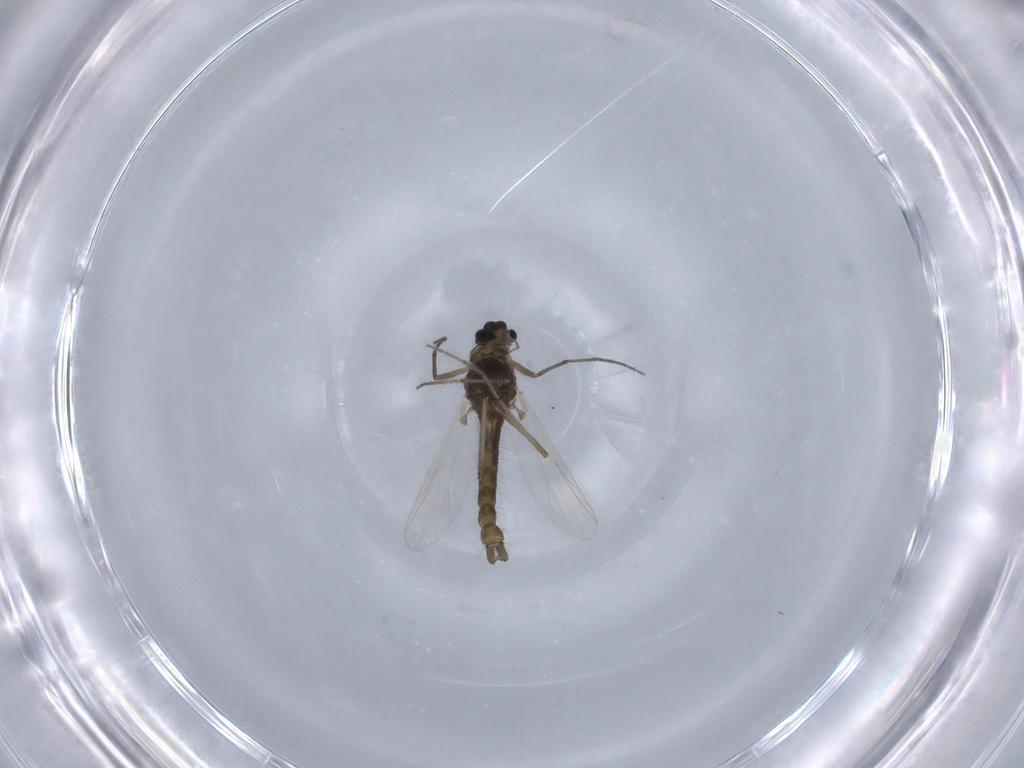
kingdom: Animalia
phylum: Arthropoda
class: Insecta
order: Diptera
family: Chironomidae
